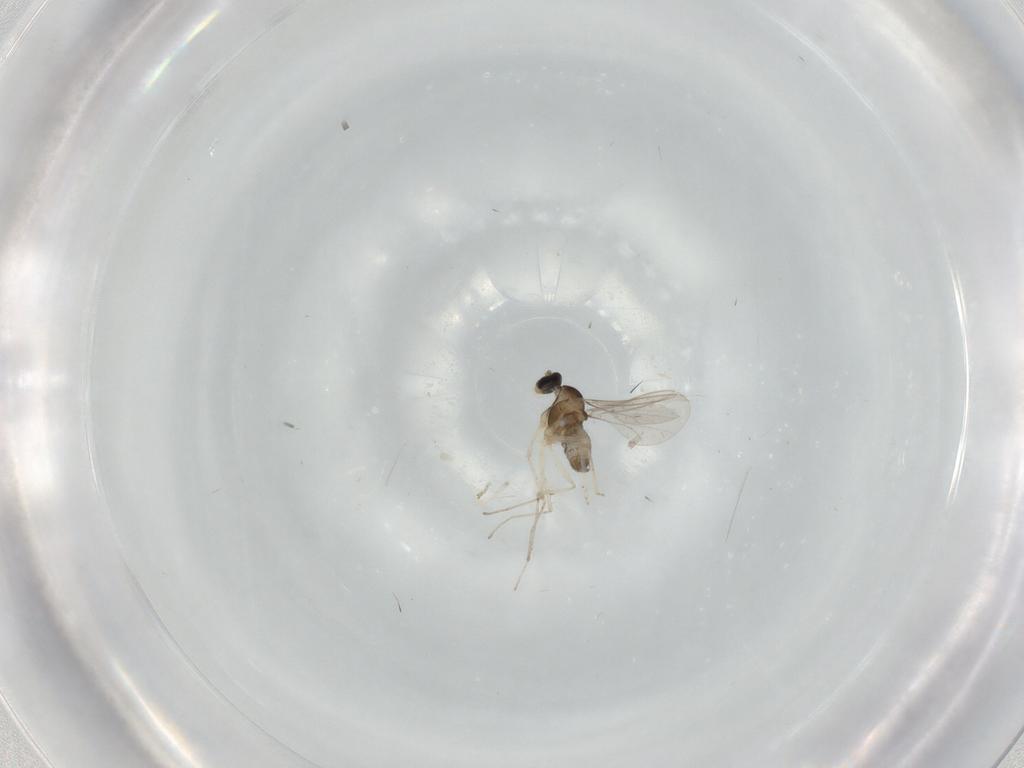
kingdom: Animalia
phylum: Arthropoda
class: Insecta
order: Diptera
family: Cecidomyiidae
